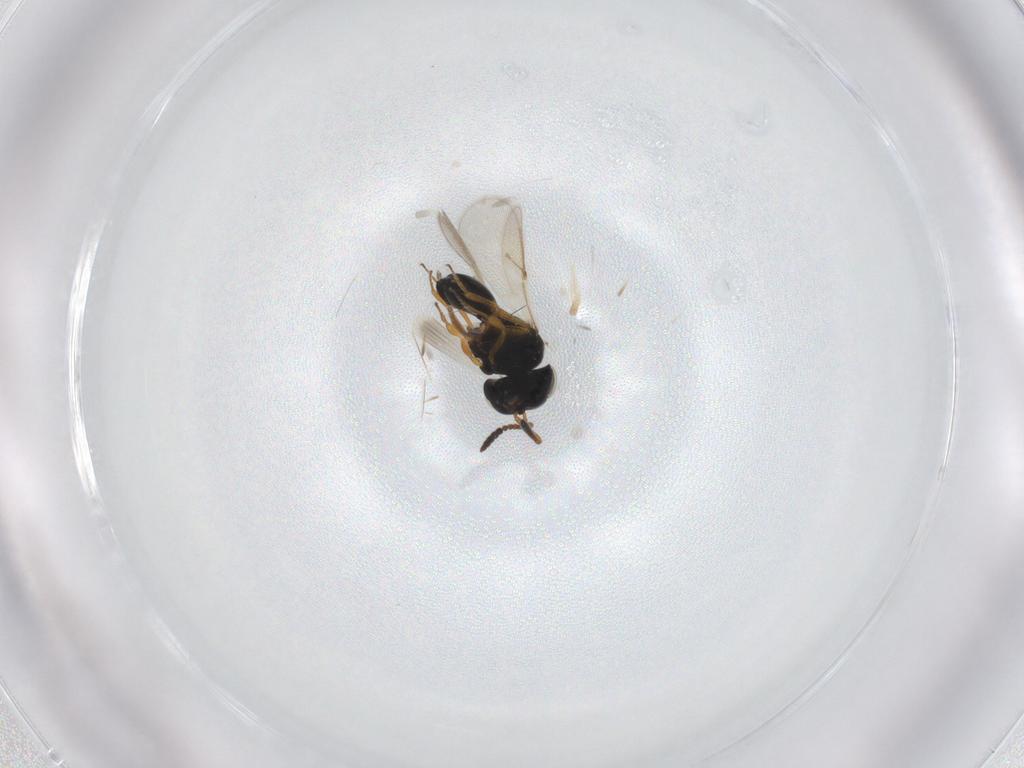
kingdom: Animalia
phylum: Arthropoda
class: Insecta
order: Hymenoptera
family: Scelionidae
